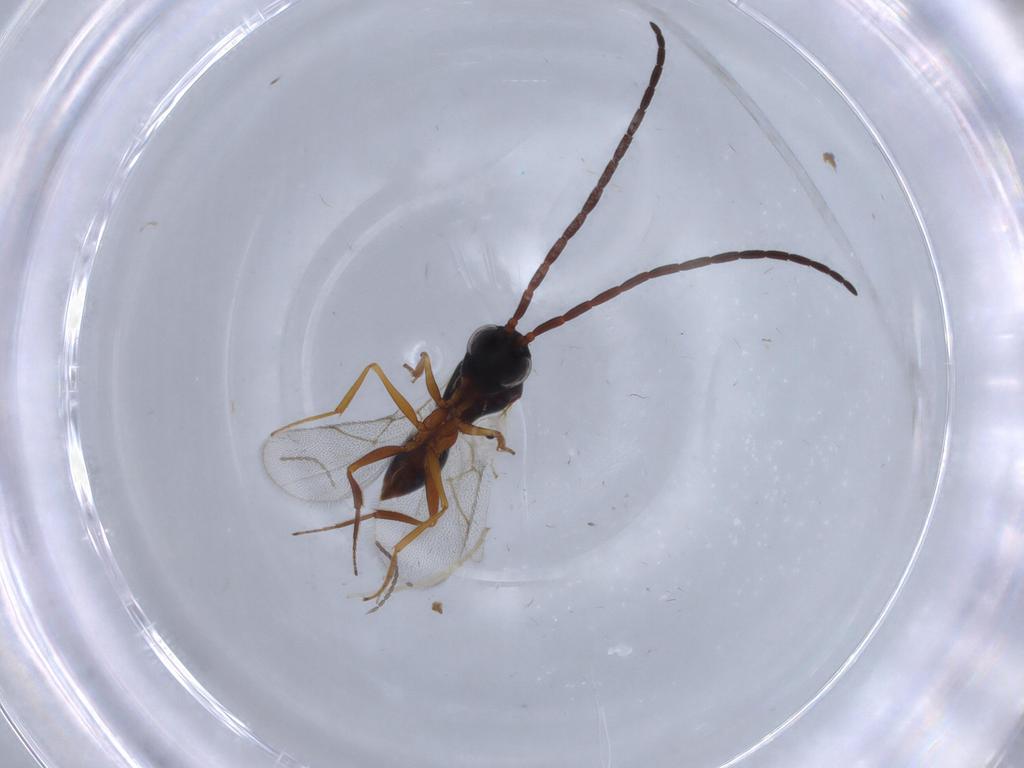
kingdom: Animalia
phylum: Arthropoda
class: Insecta
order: Hymenoptera
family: Figitidae
